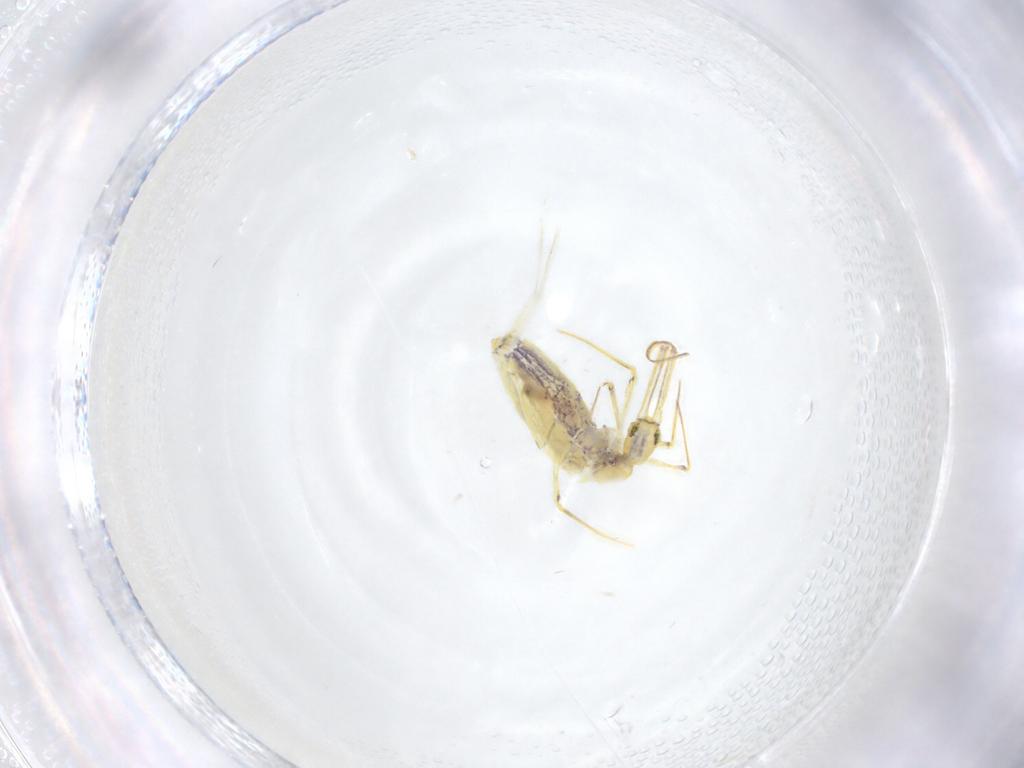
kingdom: Animalia
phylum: Arthropoda
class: Collembola
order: Entomobryomorpha
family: Entomobryidae
